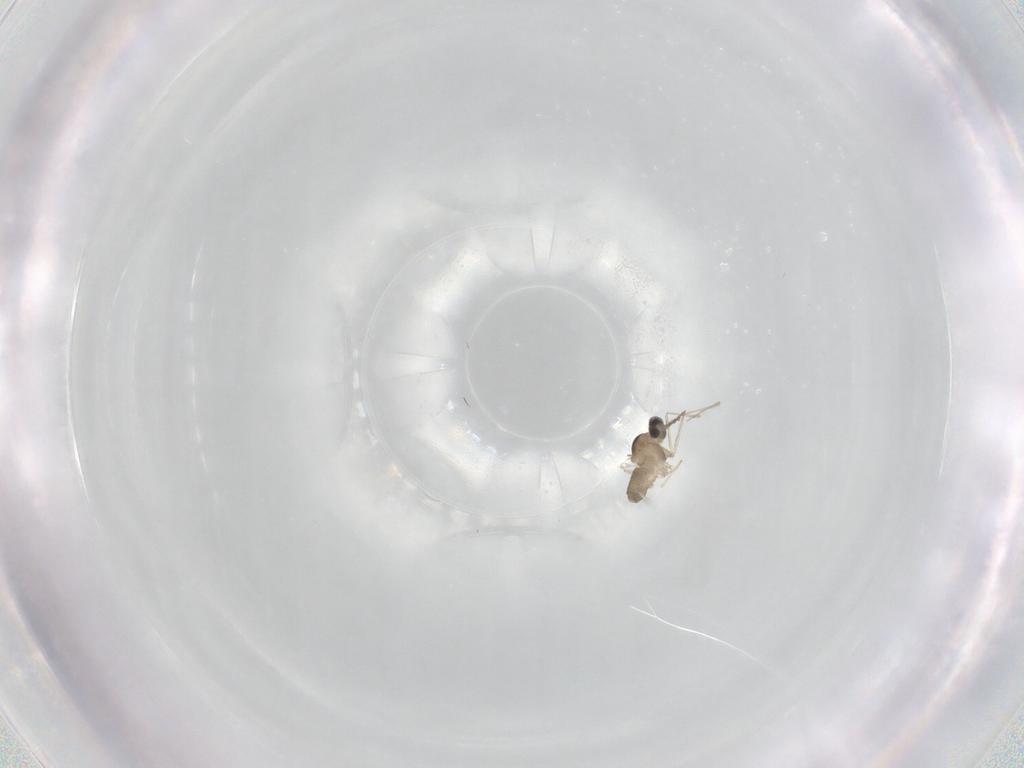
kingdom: Animalia
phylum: Arthropoda
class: Insecta
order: Diptera
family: Cecidomyiidae
